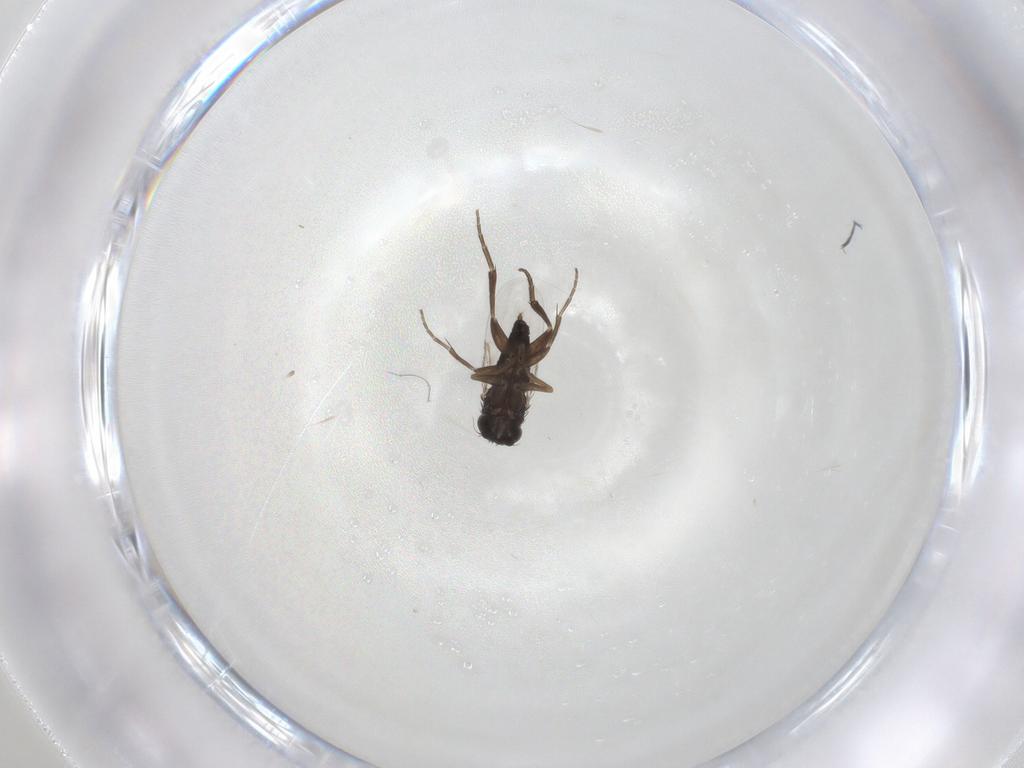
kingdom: Animalia
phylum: Arthropoda
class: Insecta
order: Diptera
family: Phoridae
